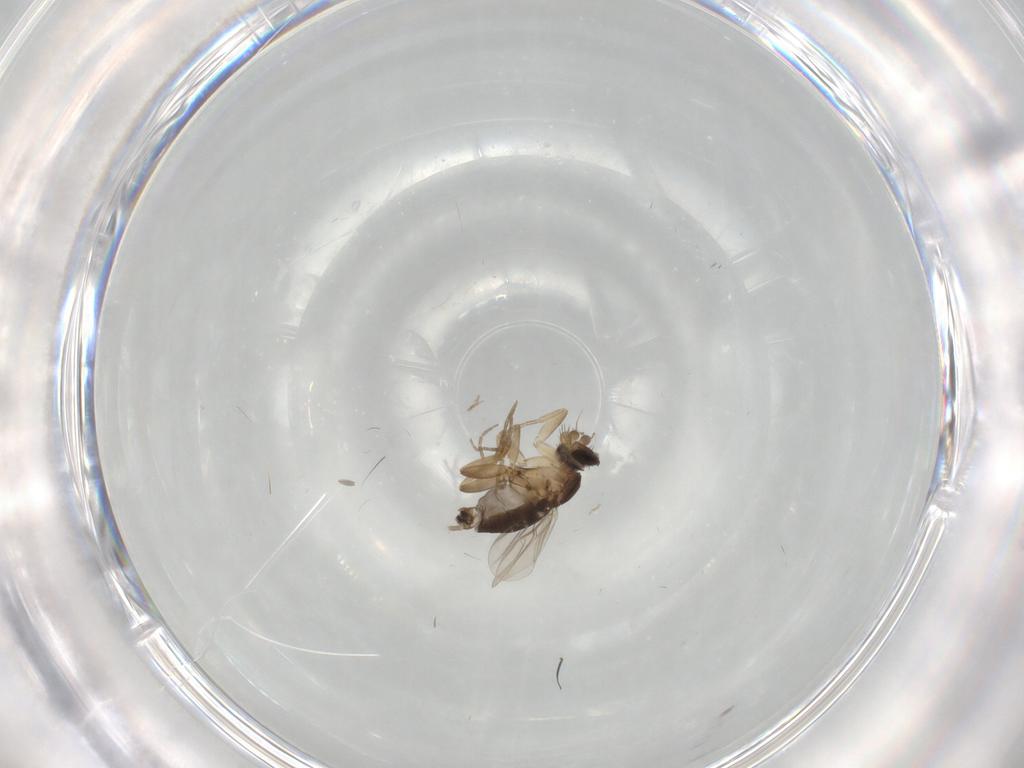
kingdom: Animalia
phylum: Arthropoda
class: Insecta
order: Diptera
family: Phoridae
